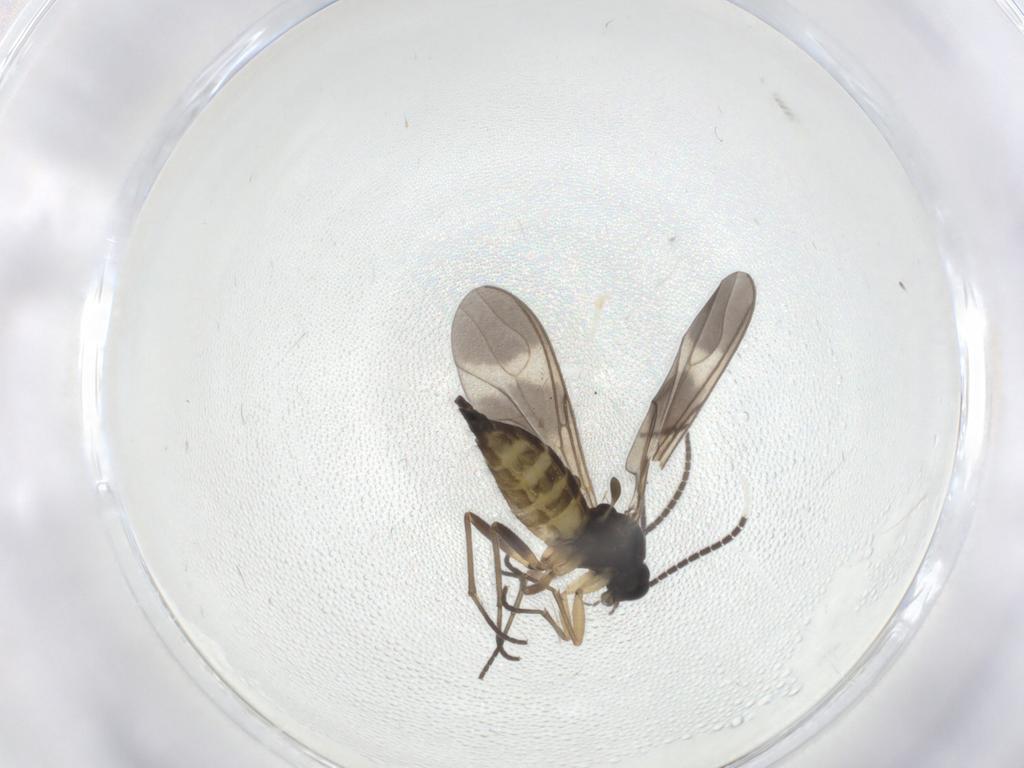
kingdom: Animalia
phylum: Arthropoda
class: Insecta
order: Diptera
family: Sciaridae
